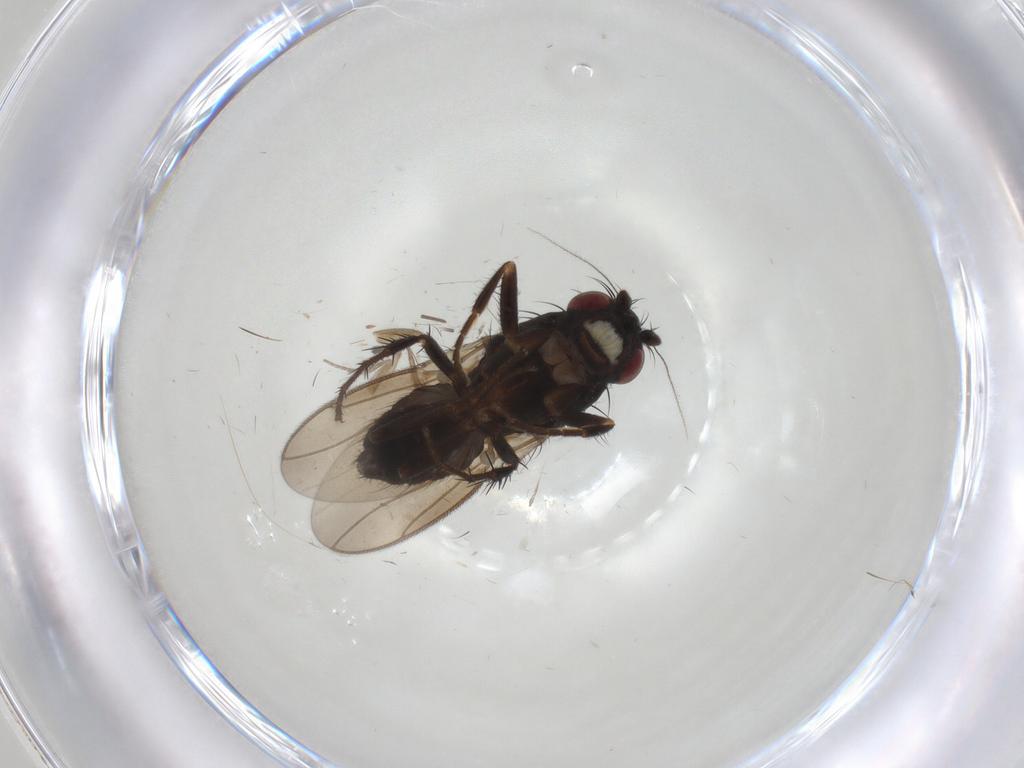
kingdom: Animalia
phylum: Arthropoda
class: Insecta
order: Diptera
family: Sphaeroceridae
